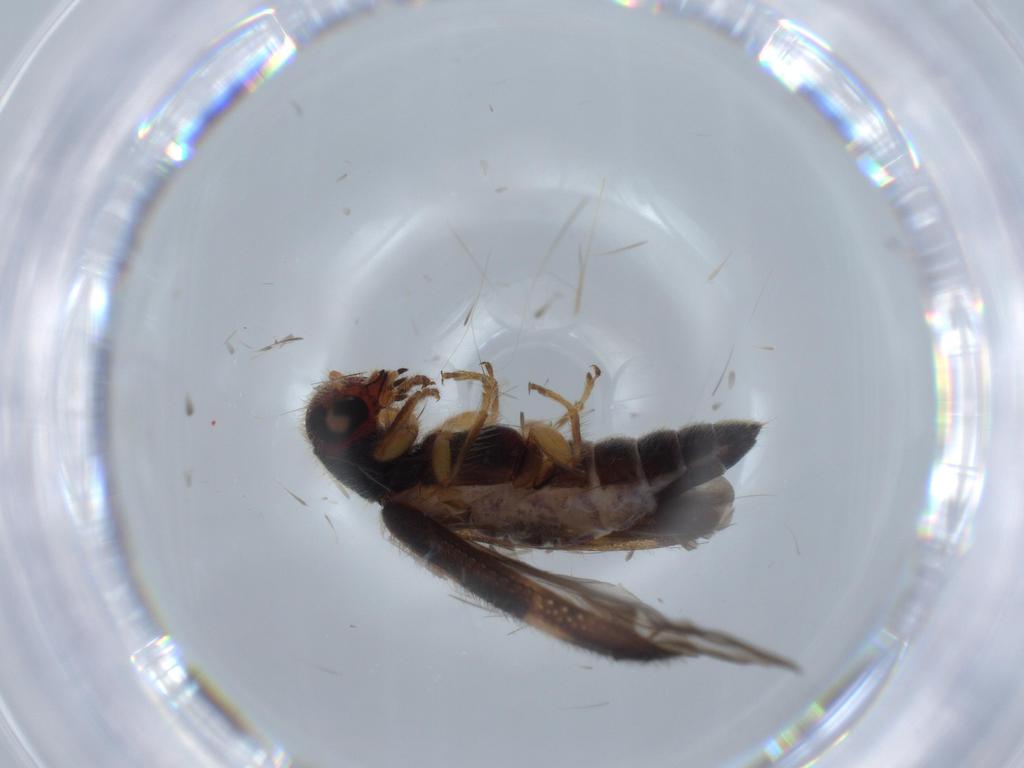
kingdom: Animalia
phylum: Arthropoda
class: Insecta
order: Coleoptera
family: Cleridae
